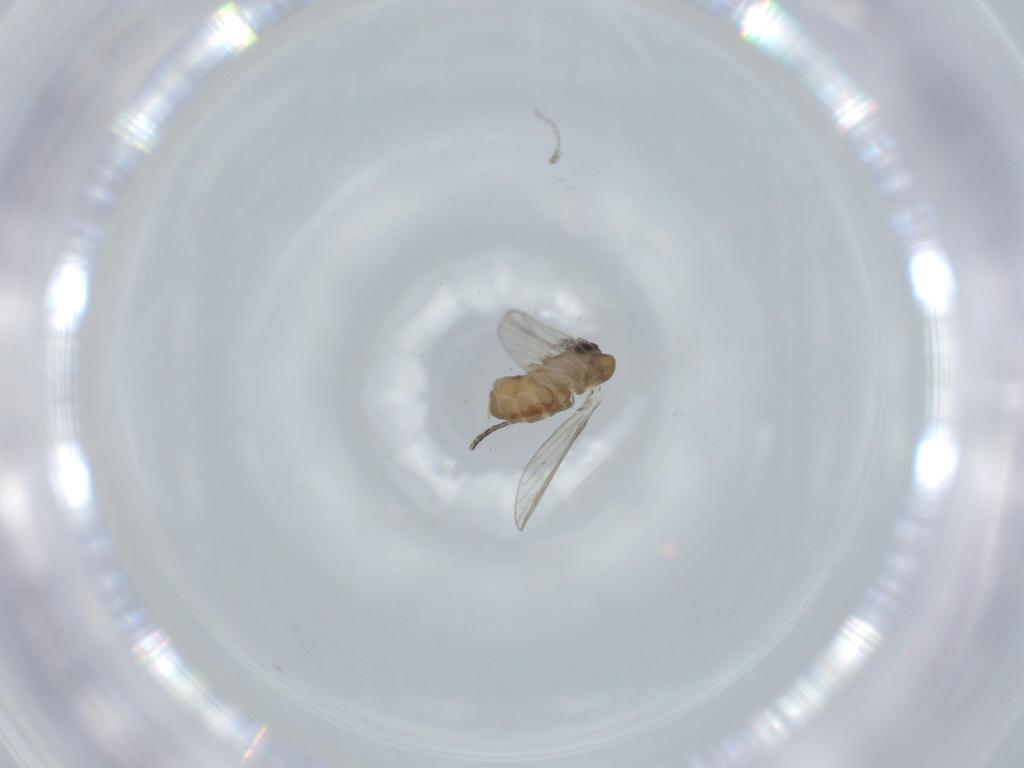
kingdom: Animalia
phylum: Arthropoda
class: Insecta
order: Diptera
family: Psychodidae
